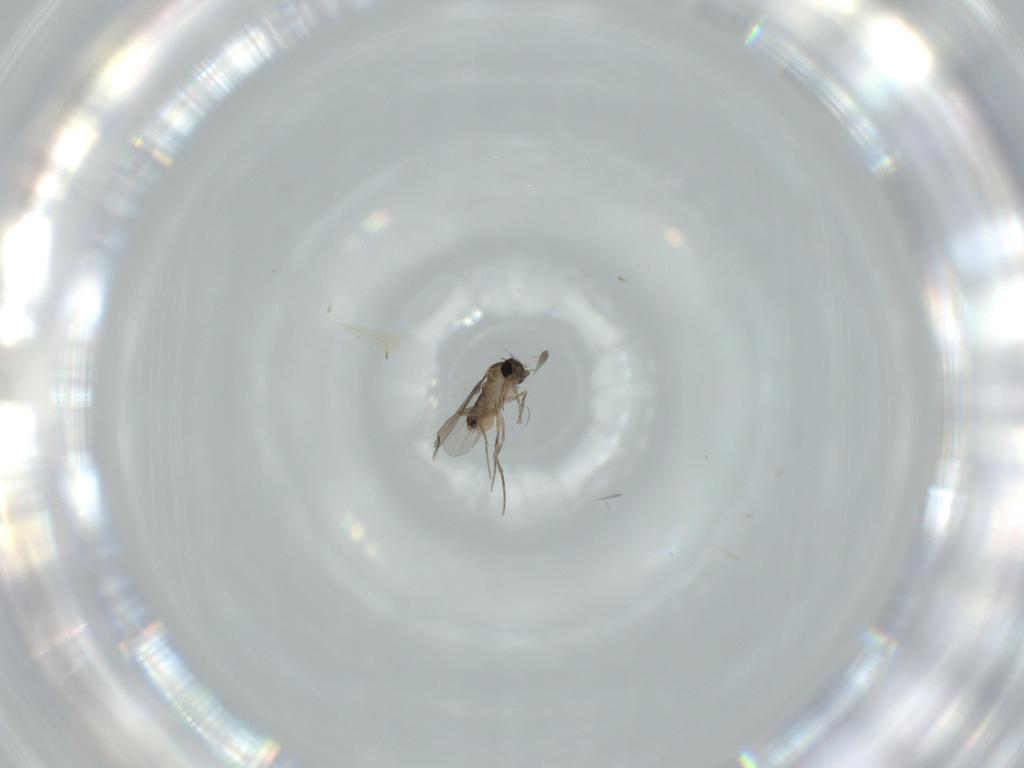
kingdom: Animalia
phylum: Arthropoda
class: Insecta
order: Diptera
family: Phoridae
